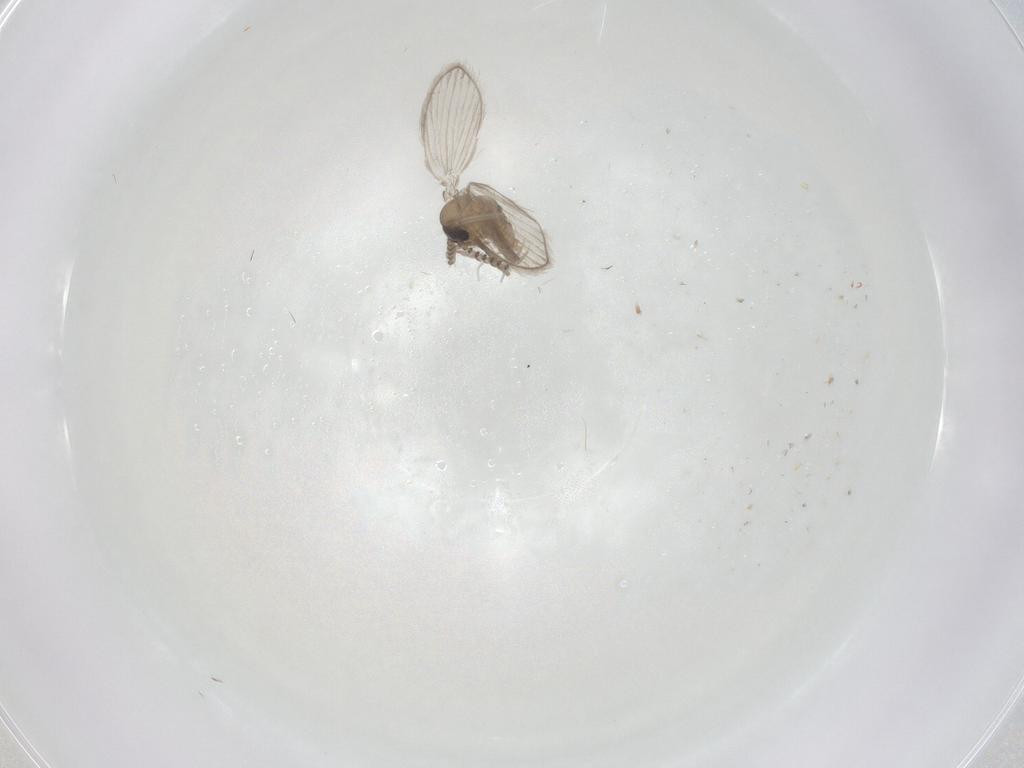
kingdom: Animalia
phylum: Arthropoda
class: Insecta
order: Diptera
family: Psychodidae
